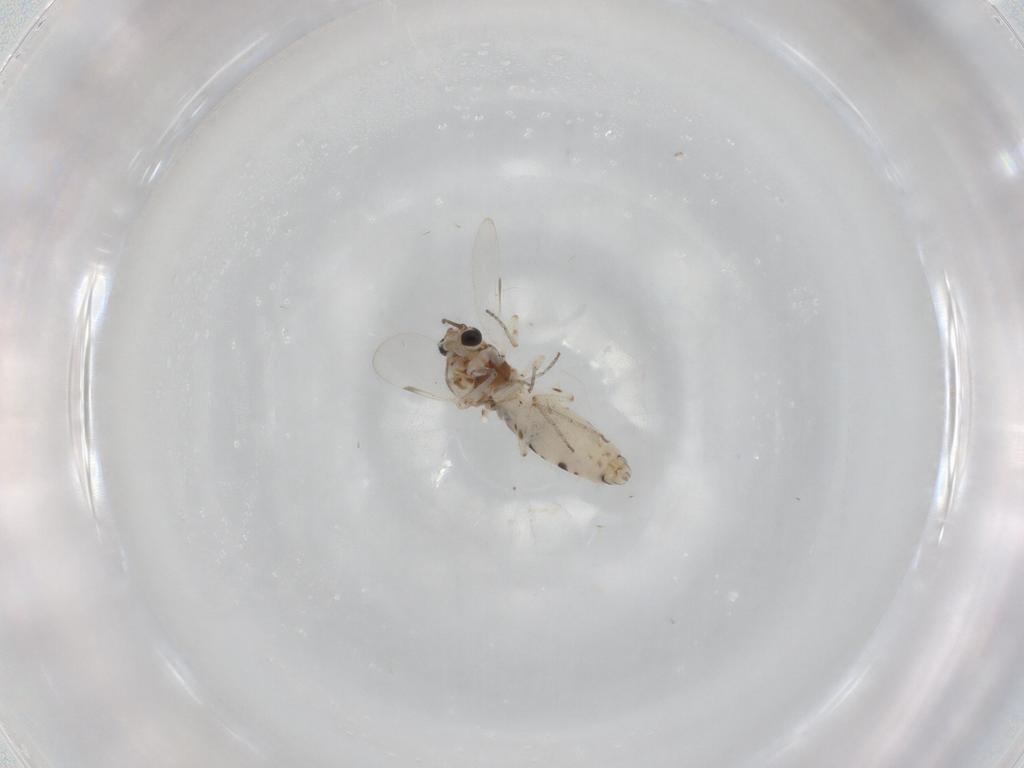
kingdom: Animalia
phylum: Arthropoda
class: Insecta
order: Diptera
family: Ceratopogonidae
